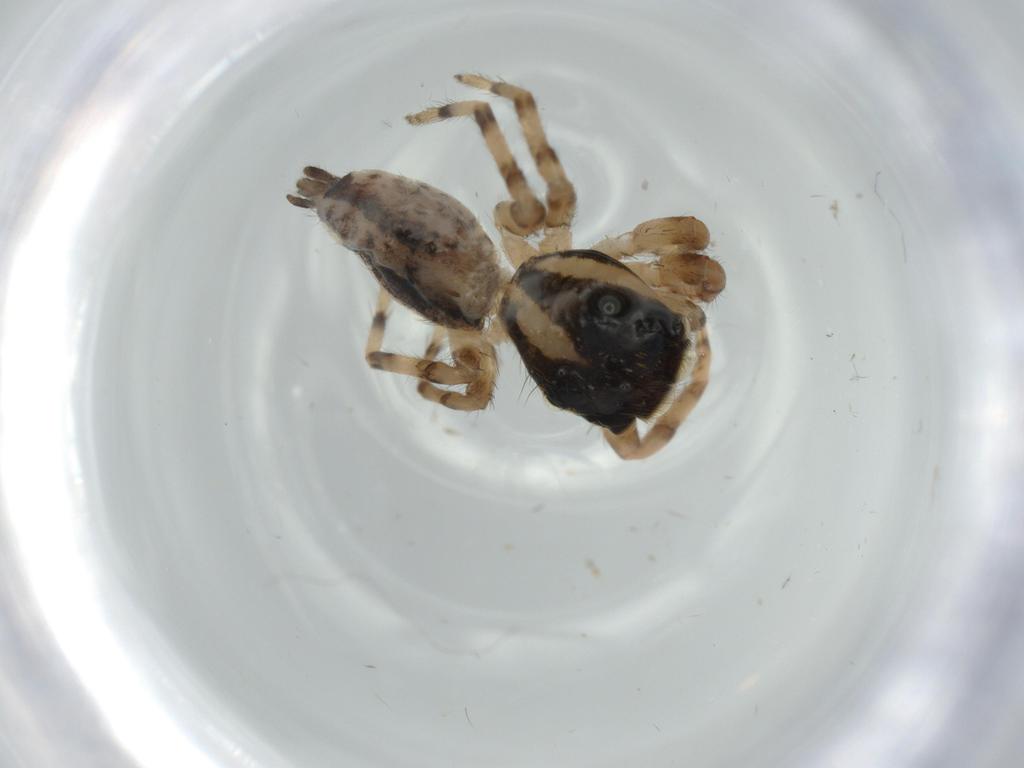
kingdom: Animalia
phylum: Arthropoda
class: Arachnida
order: Araneae
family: Salticidae
